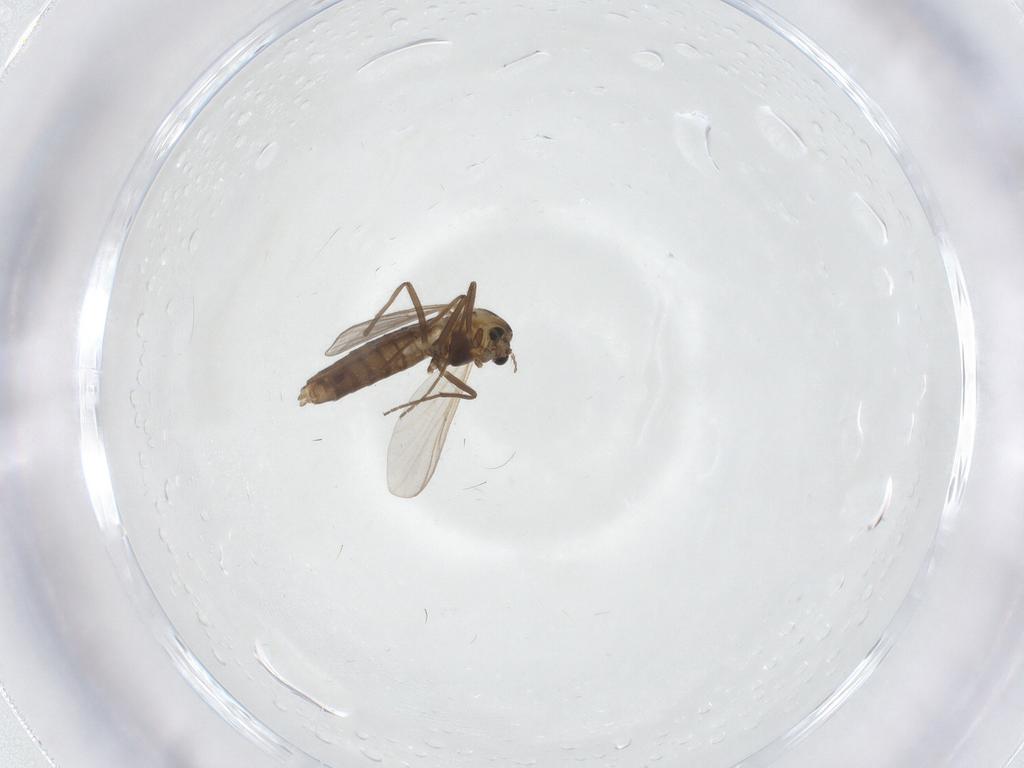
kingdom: Animalia
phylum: Arthropoda
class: Insecta
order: Diptera
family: Chironomidae
